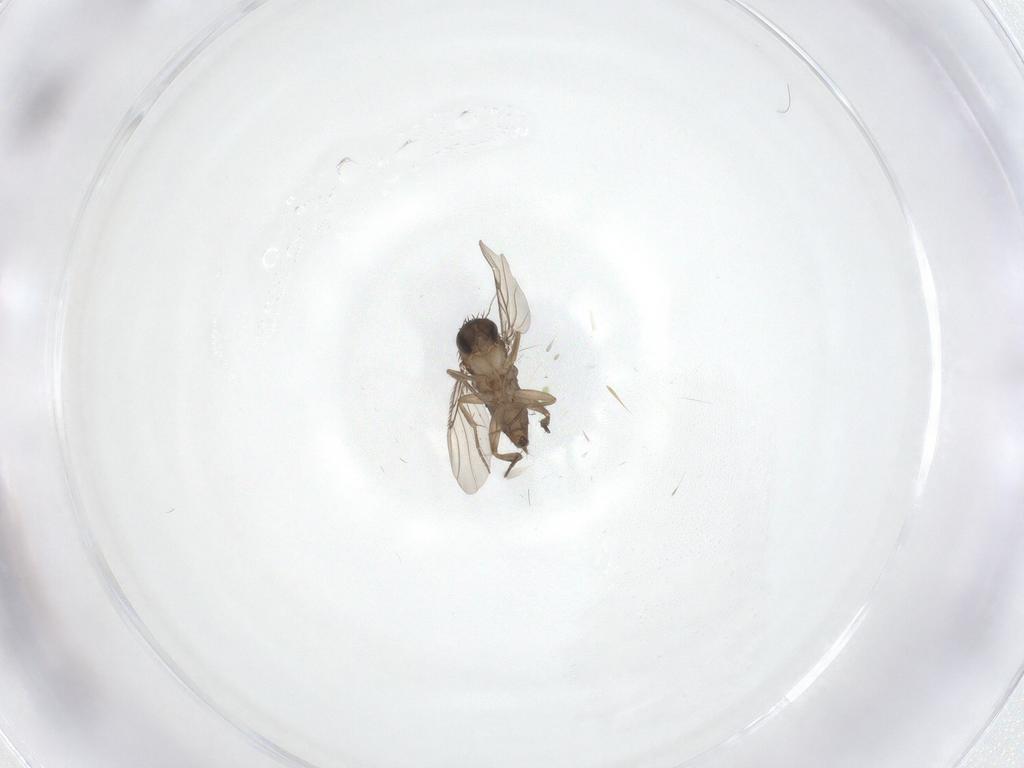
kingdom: Animalia
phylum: Arthropoda
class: Insecta
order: Diptera
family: Phoridae
